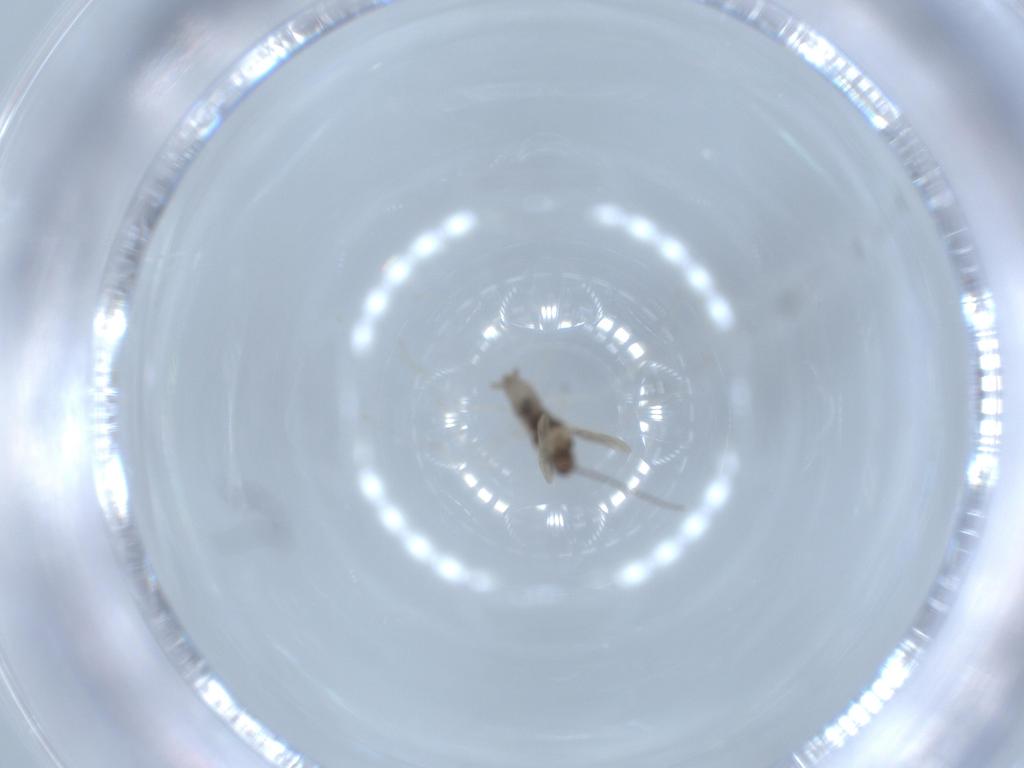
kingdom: Animalia
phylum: Arthropoda
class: Insecta
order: Diptera
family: Cecidomyiidae
